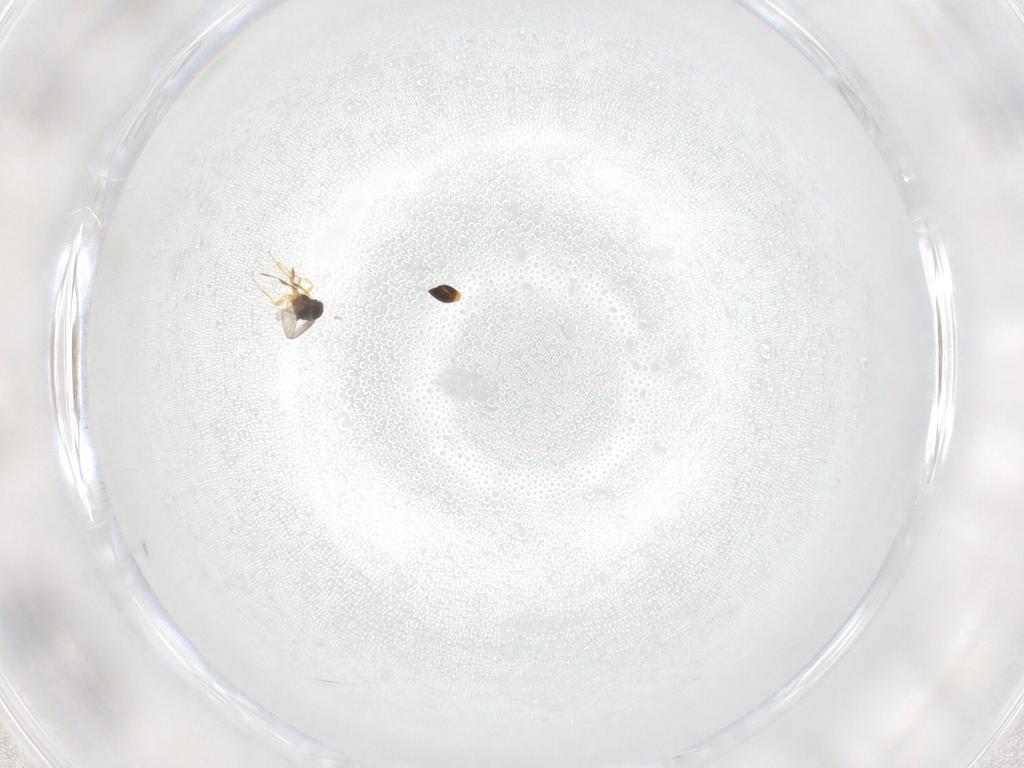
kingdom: Animalia
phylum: Arthropoda
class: Insecta
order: Hymenoptera
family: Platygastridae
